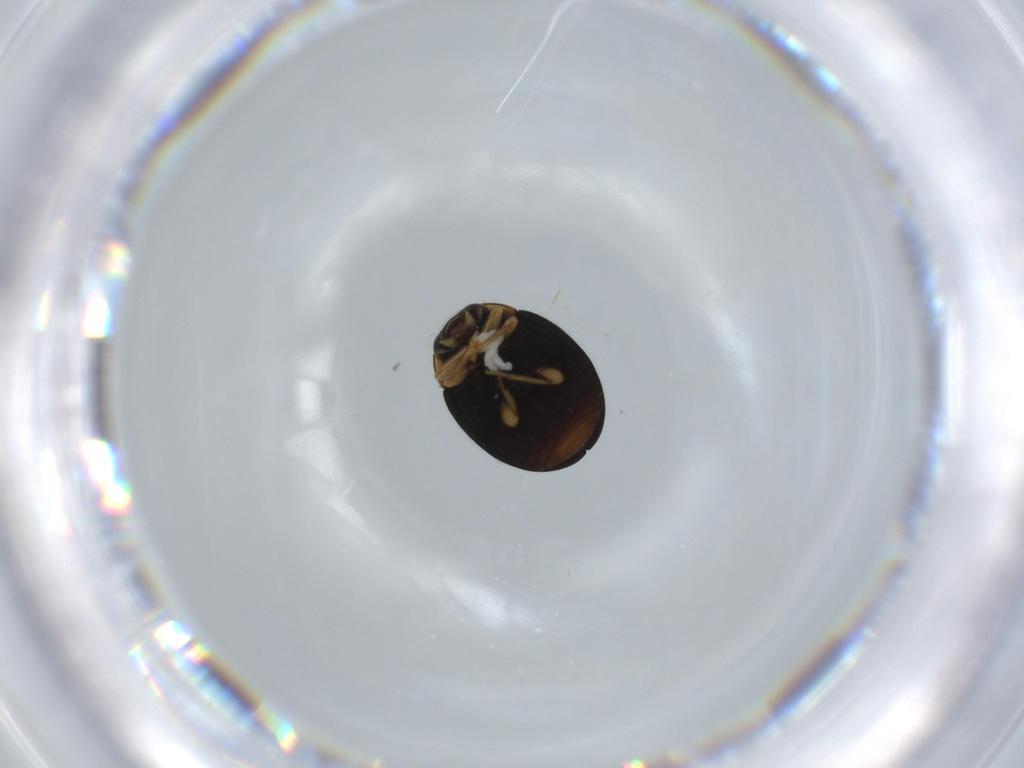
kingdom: Animalia
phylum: Arthropoda
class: Insecta
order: Coleoptera
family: Coccinellidae
